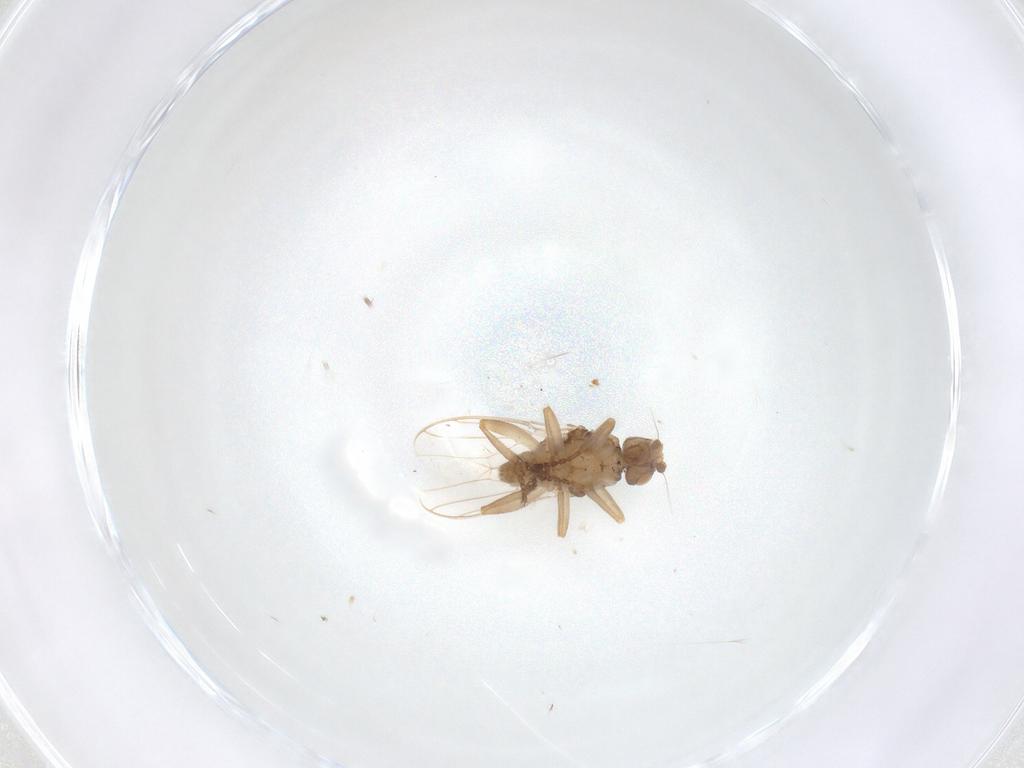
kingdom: Animalia
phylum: Arthropoda
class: Insecta
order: Diptera
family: Sphaeroceridae
